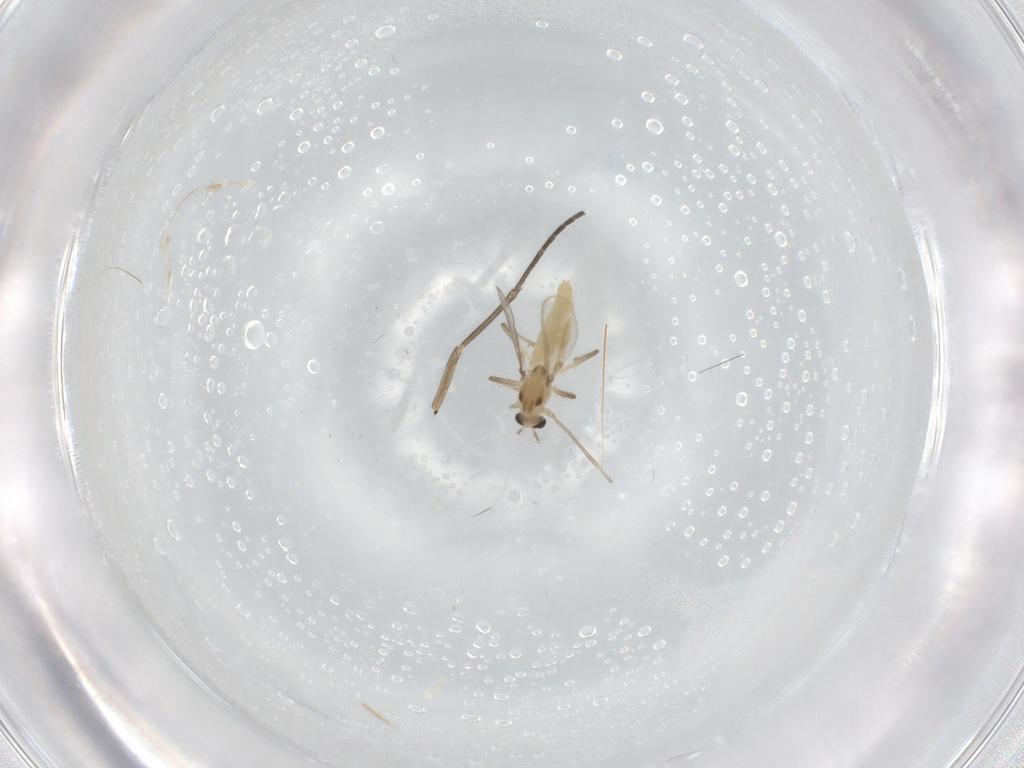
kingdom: Animalia
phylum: Arthropoda
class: Insecta
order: Diptera
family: Chironomidae
